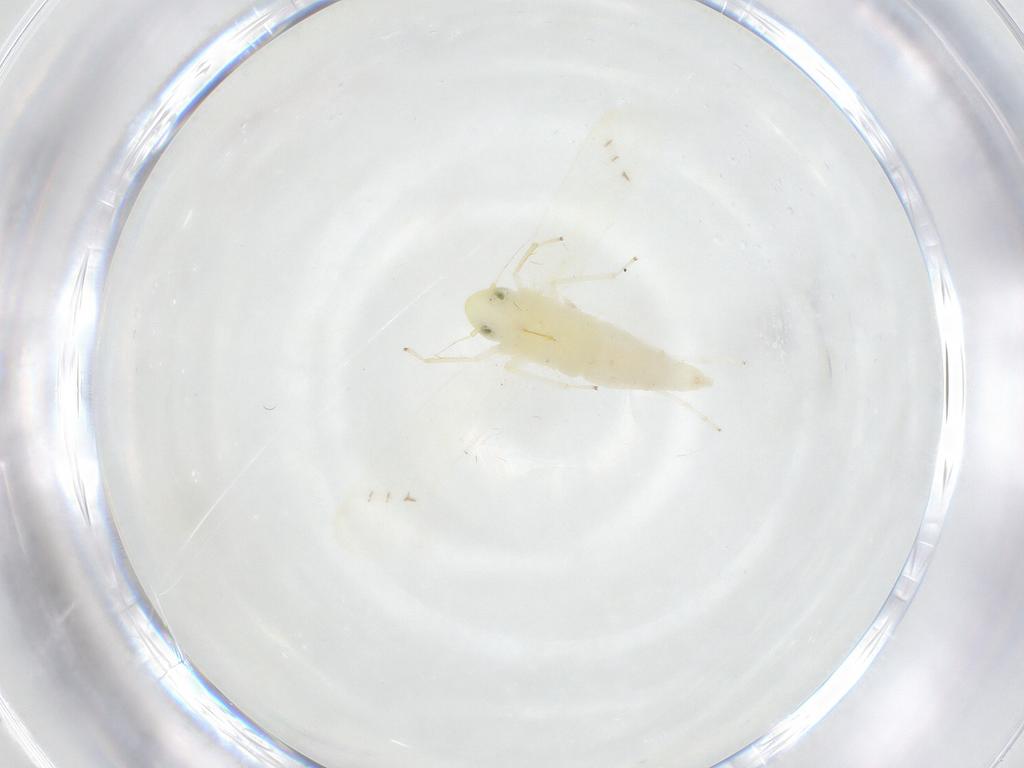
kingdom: Animalia
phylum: Arthropoda
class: Insecta
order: Hemiptera
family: Cicadellidae
